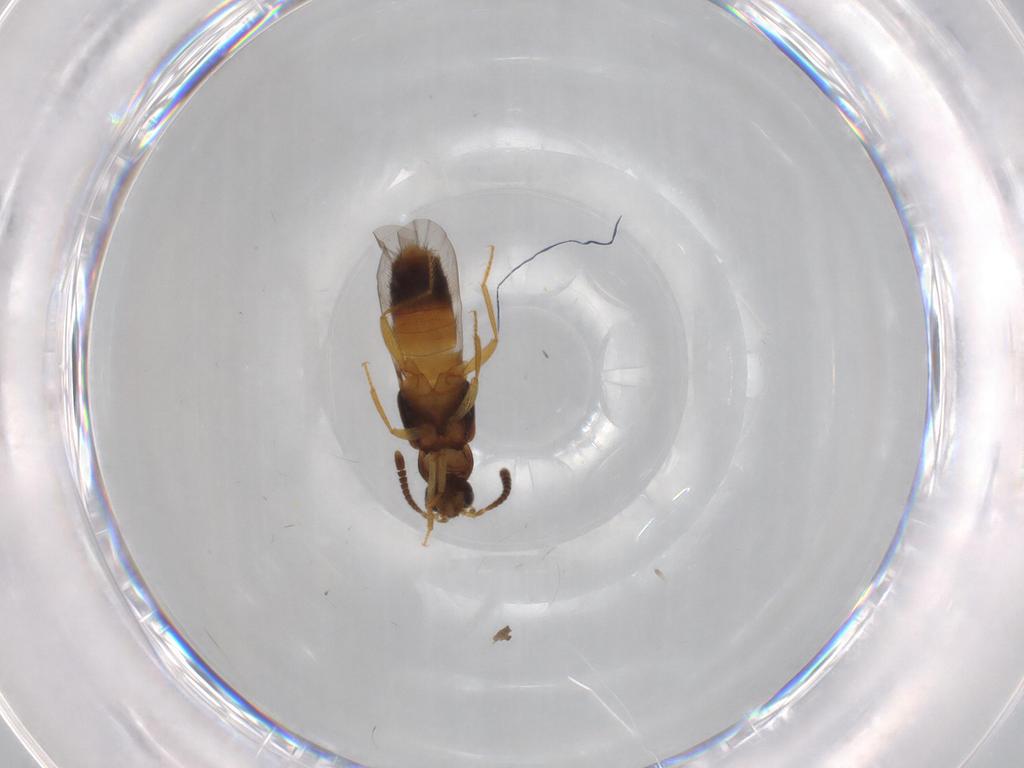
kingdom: Animalia
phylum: Arthropoda
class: Insecta
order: Coleoptera
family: Staphylinidae
